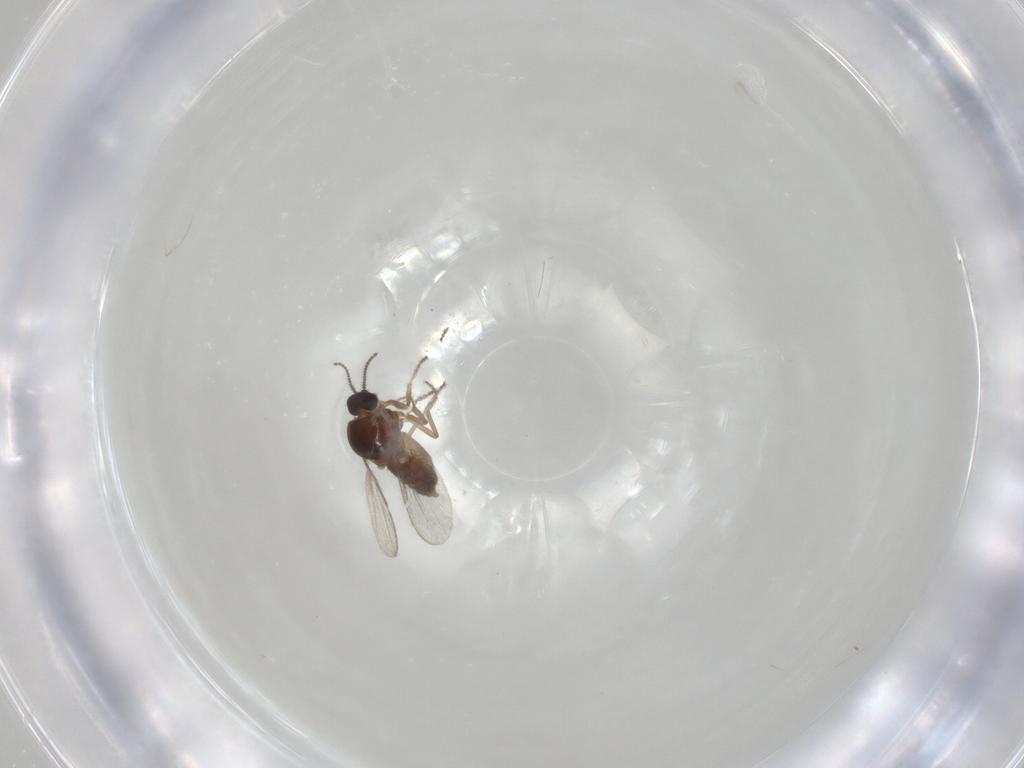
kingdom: Animalia
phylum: Arthropoda
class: Insecta
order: Diptera
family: Ceratopogonidae
